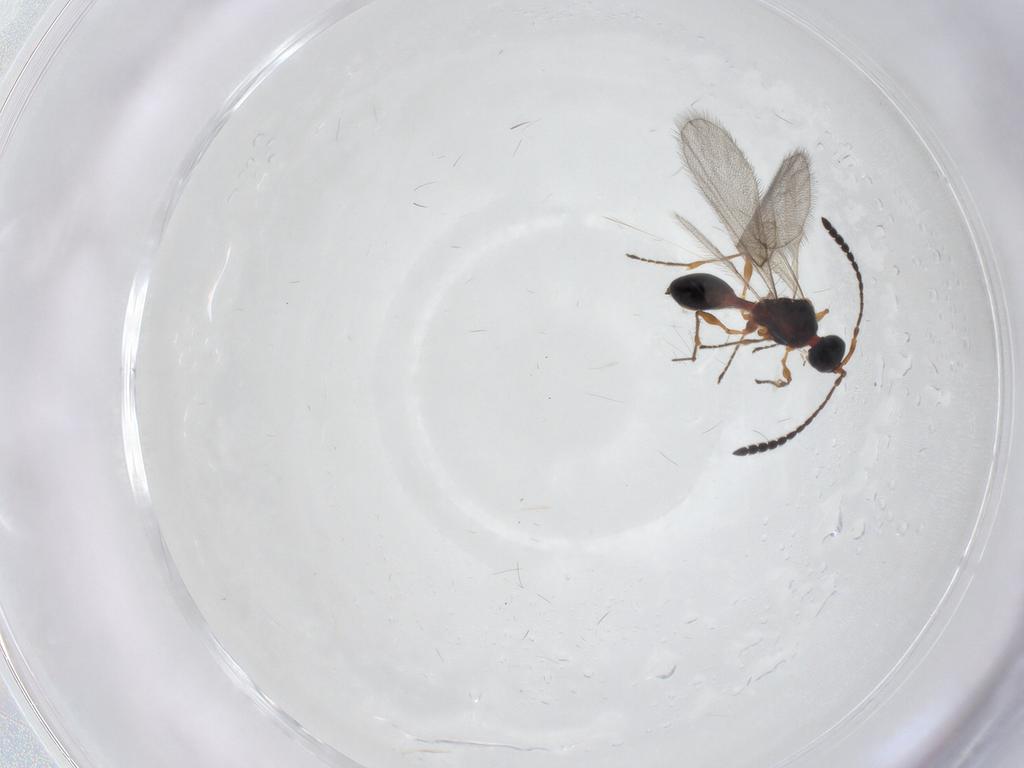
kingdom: Animalia
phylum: Arthropoda
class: Insecta
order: Hymenoptera
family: Diapriidae
